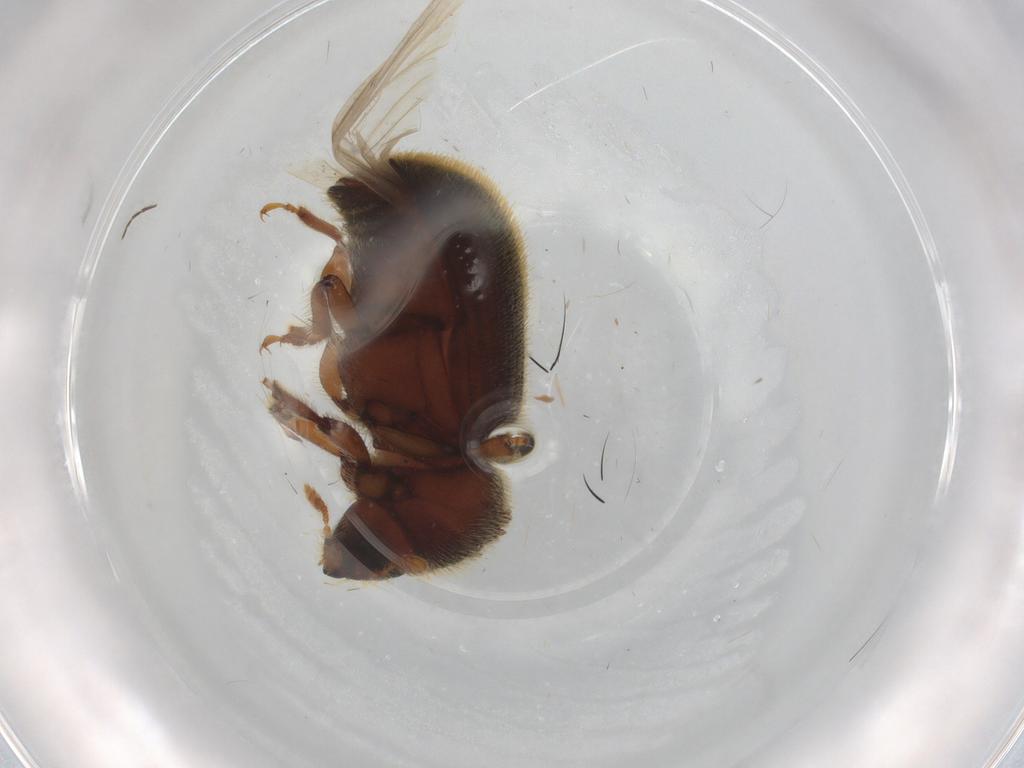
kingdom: Animalia
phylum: Arthropoda
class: Insecta
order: Coleoptera
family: Curculionidae
